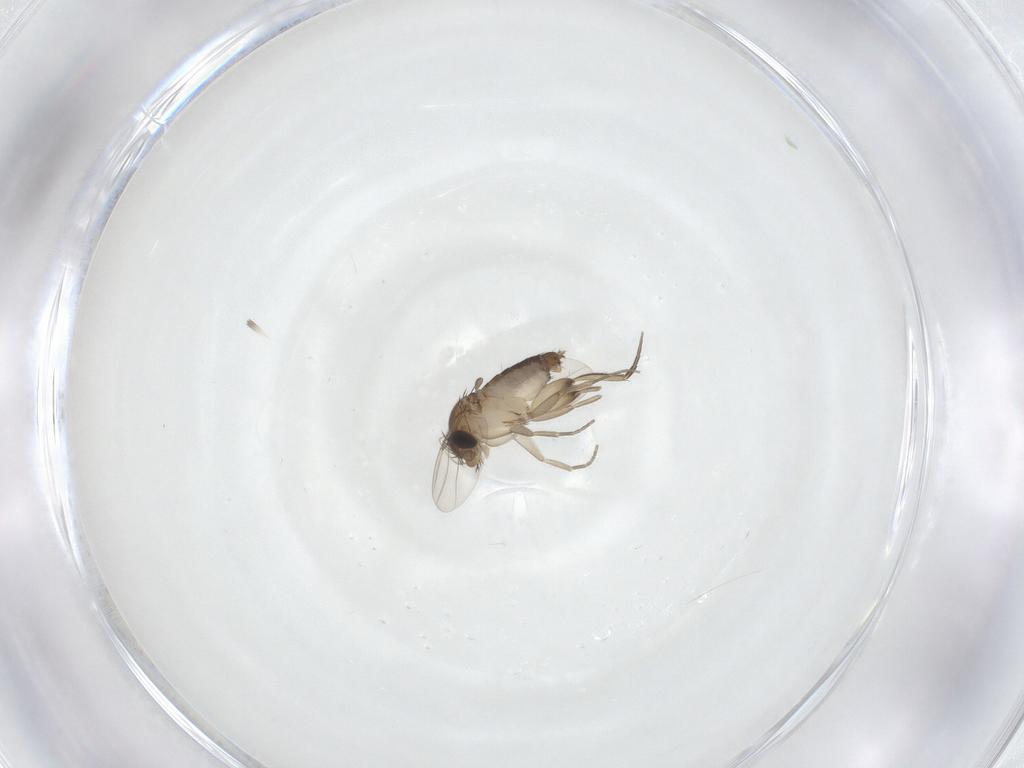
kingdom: Animalia
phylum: Arthropoda
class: Insecta
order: Diptera
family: Phoridae
